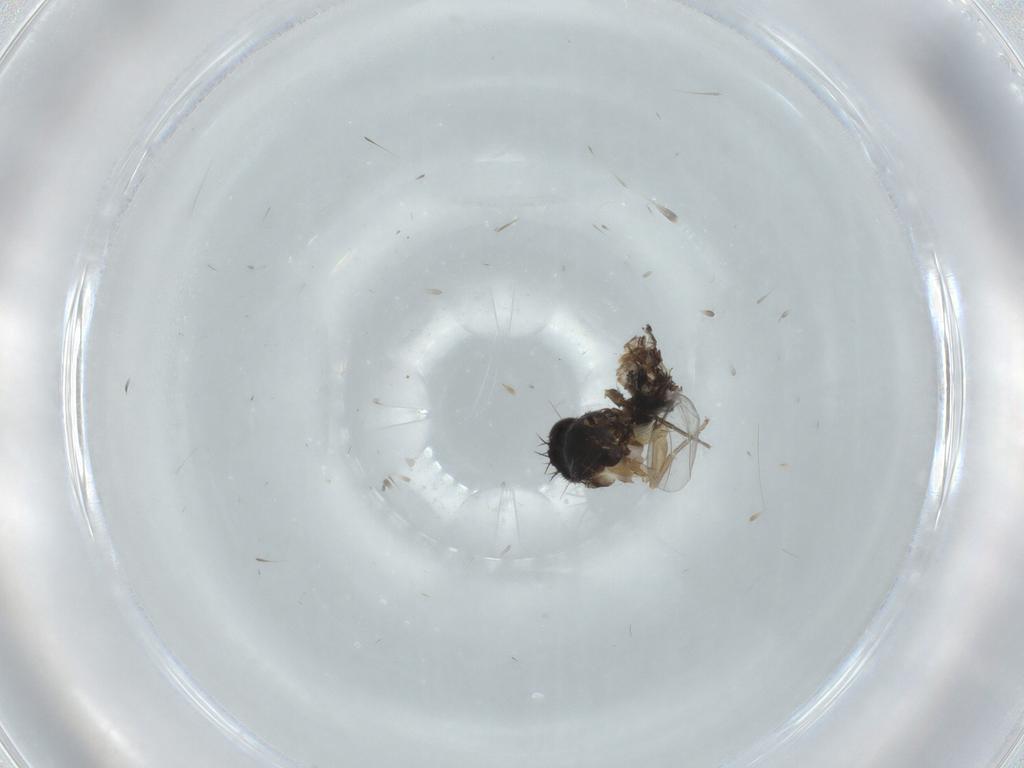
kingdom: Animalia
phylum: Arthropoda
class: Insecta
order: Diptera
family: Phoridae
